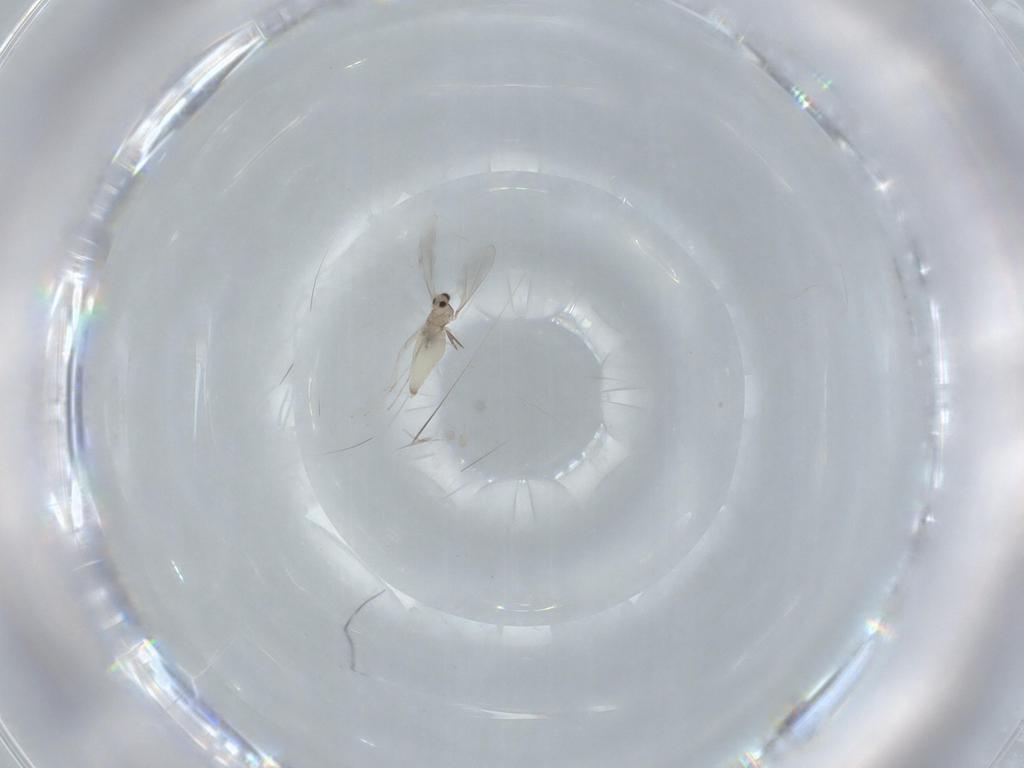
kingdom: Animalia
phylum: Arthropoda
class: Insecta
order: Diptera
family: Cecidomyiidae
